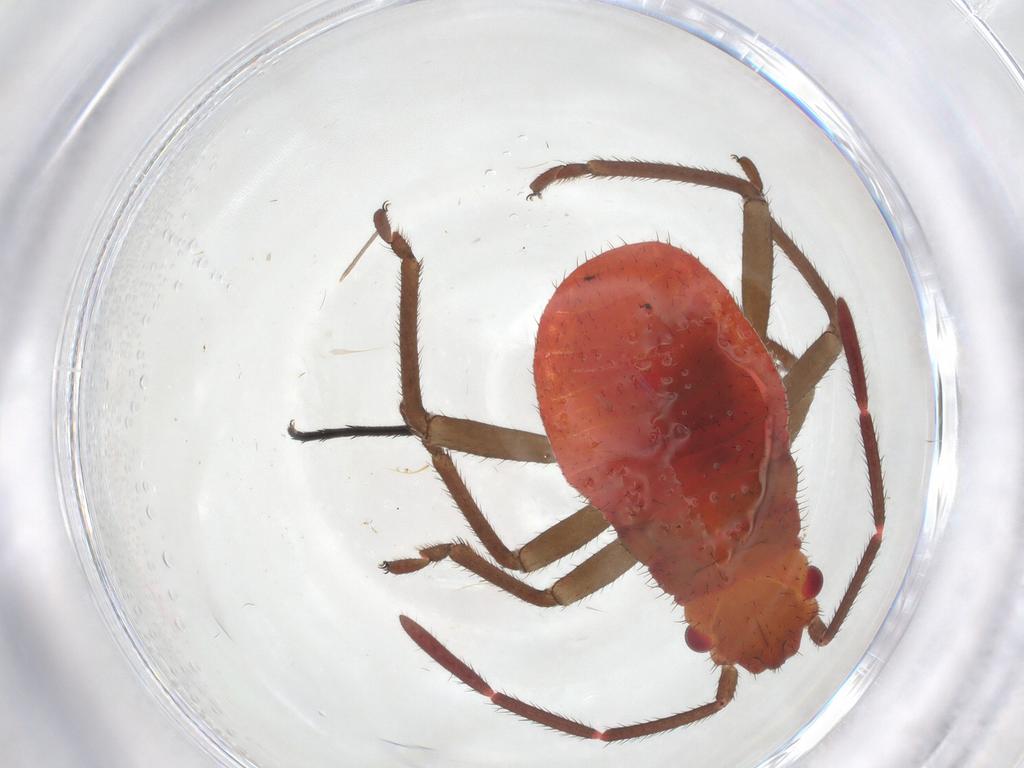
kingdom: Animalia
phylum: Arthropoda
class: Insecta
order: Hemiptera
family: Rhopalidae
